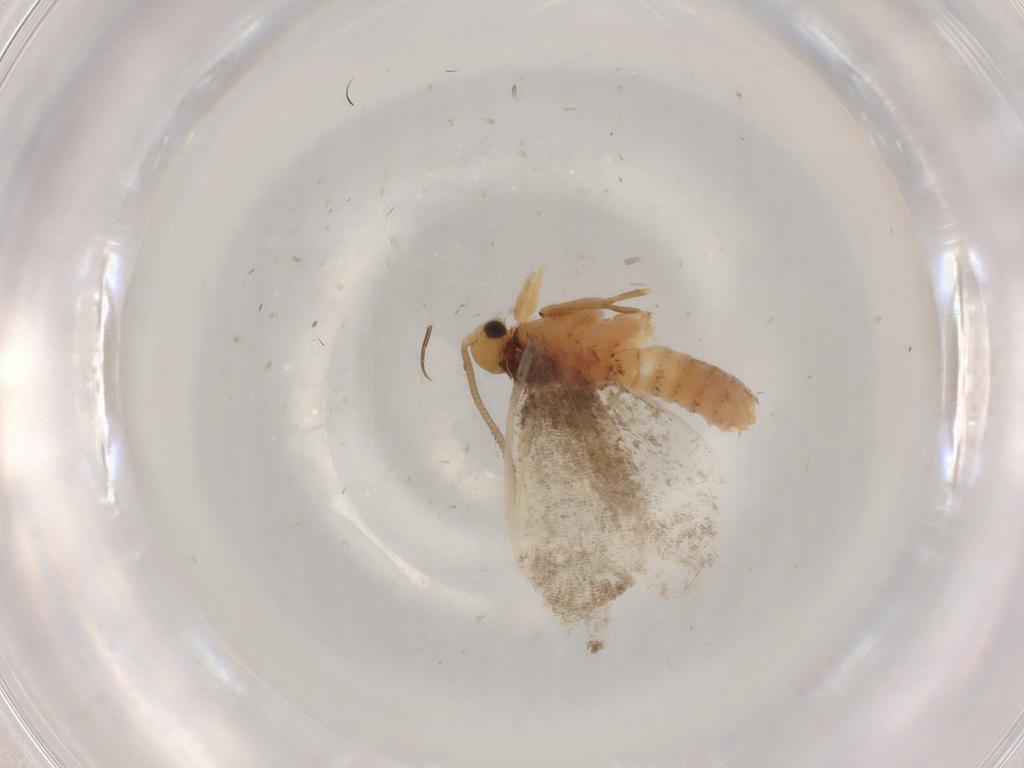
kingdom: Animalia
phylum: Arthropoda
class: Insecta
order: Lepidoptera
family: Dryadaulidae
